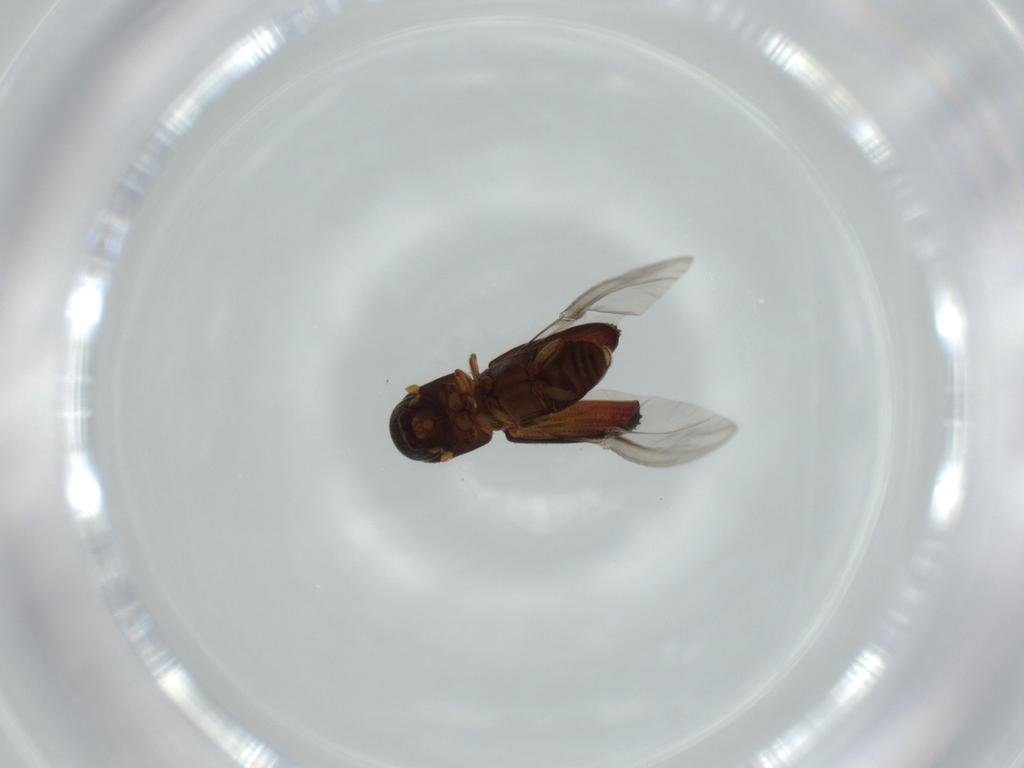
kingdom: Animalia
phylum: Arthropoda
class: Insecta
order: Coleoptera
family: Curculionidae
